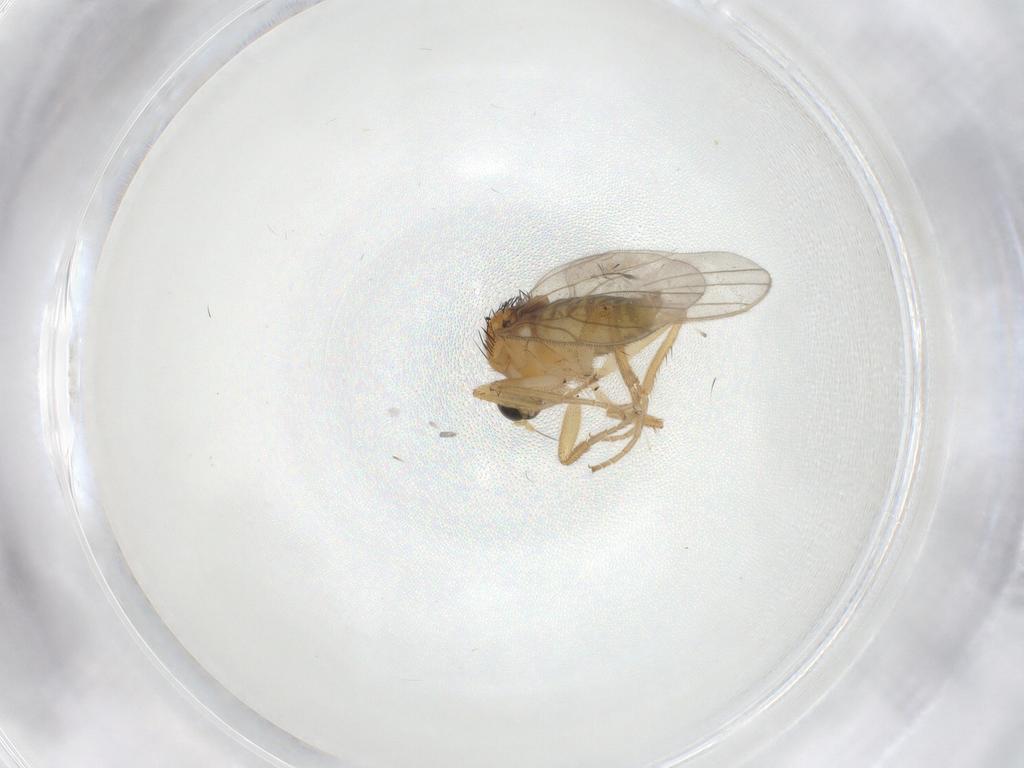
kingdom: Animalia
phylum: Arthropoda
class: Insecta
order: Diptera
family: Hybotidae
